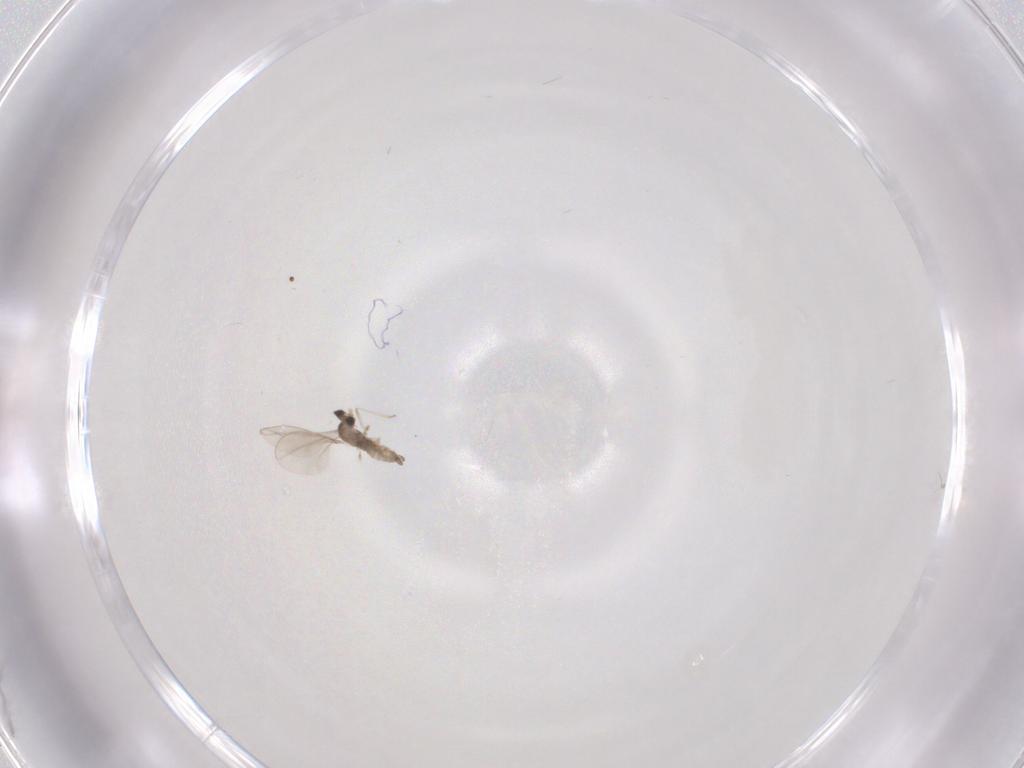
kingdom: Animalia
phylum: Arthropoda
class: Insecta
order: Diptera
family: Cecidomyiidae
